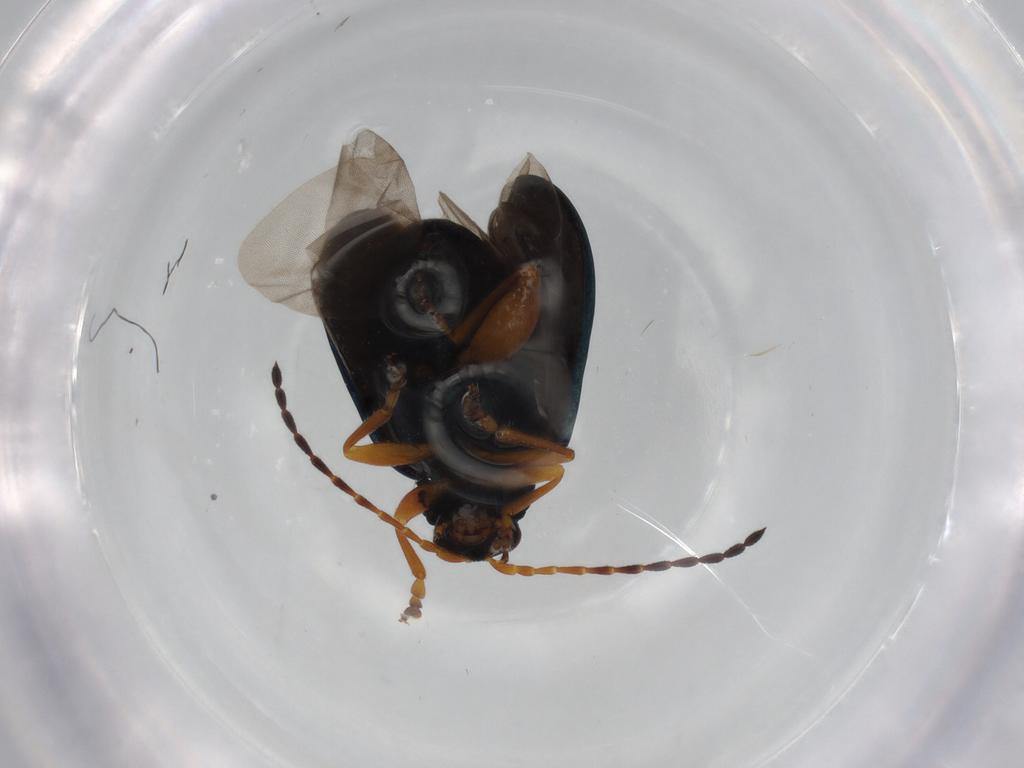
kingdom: Animalia
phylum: Arthropoda
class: Insecta
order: Coleoptera
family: Chrysomelidae
